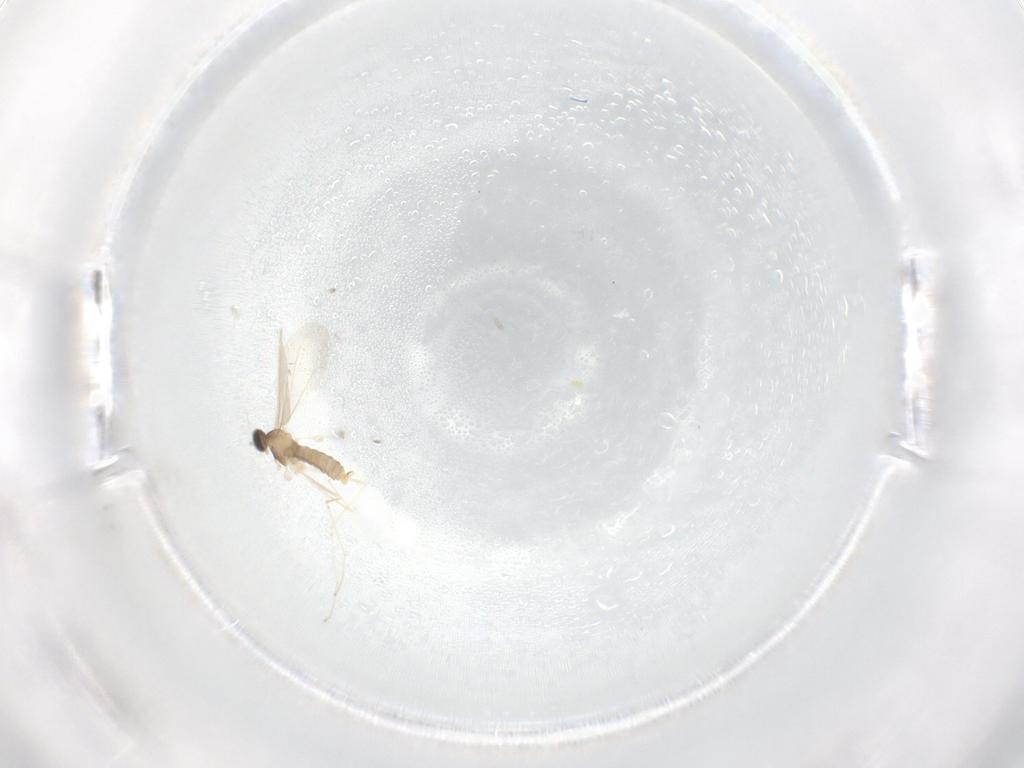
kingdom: Animalia
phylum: Arthropoda
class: Insecta
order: Diptera
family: Cecidomyiidae
